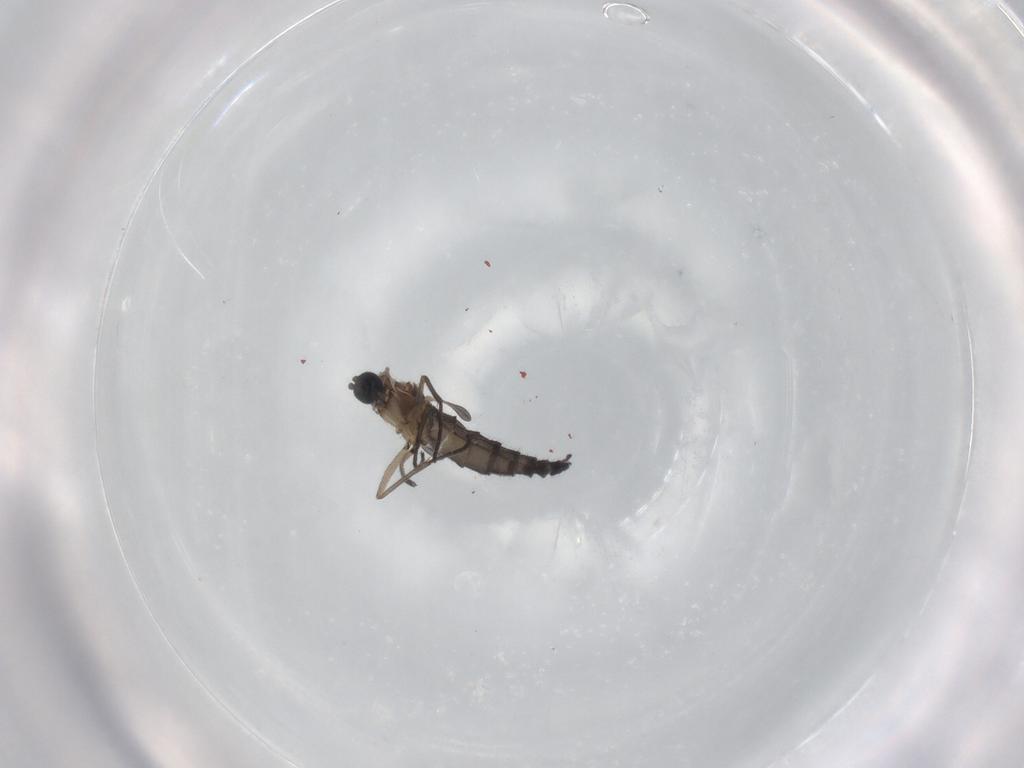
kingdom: Animalia
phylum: Arthropoda
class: Insecta
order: Diptera
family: Sciaridae
